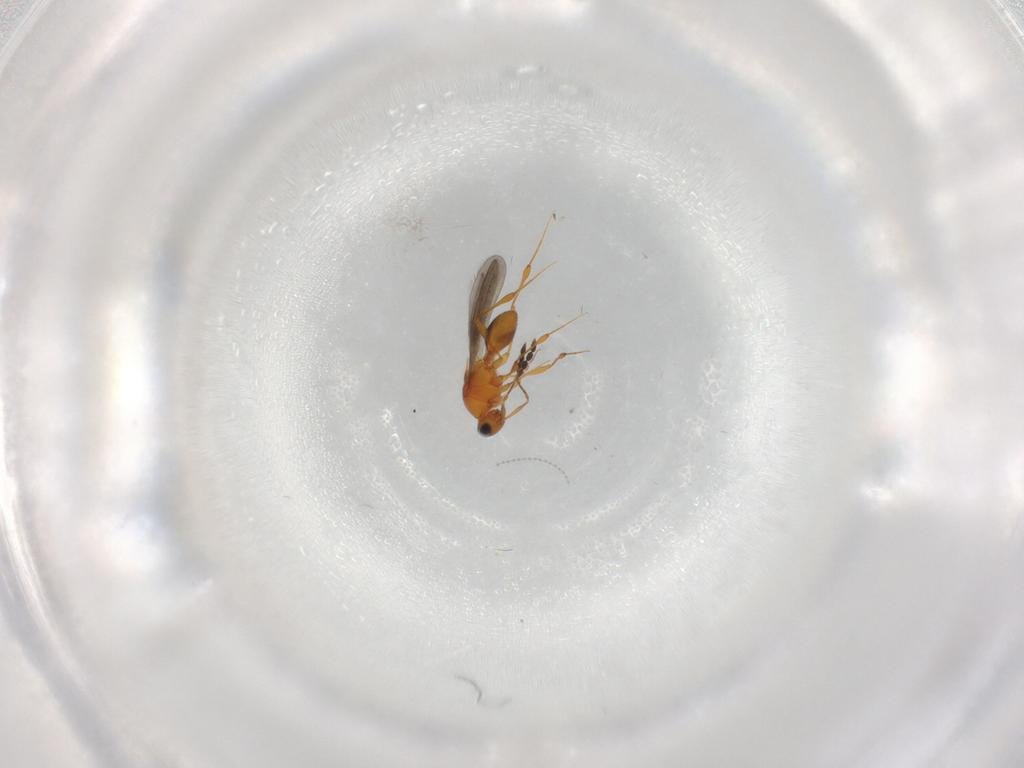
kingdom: Animalia
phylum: Arthropoda
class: Insecta
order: Hymenoptera
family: Platygastridae
